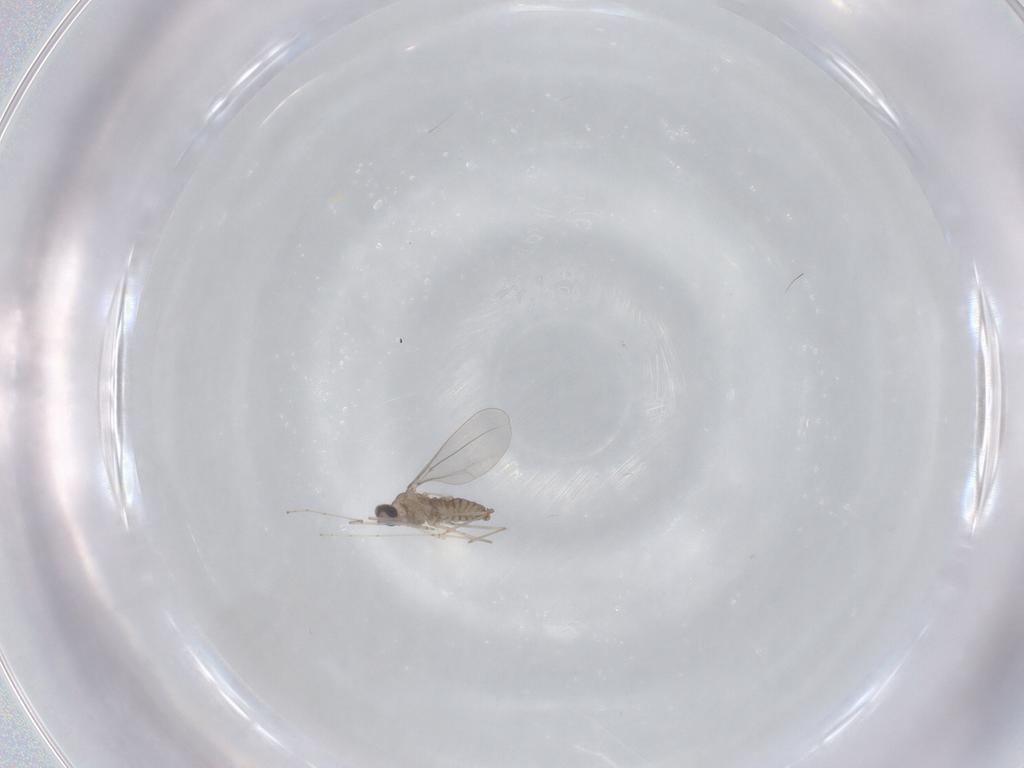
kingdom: Animalia
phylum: Arthropoda
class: Insecta
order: Diptera
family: Cecidomyiidae
